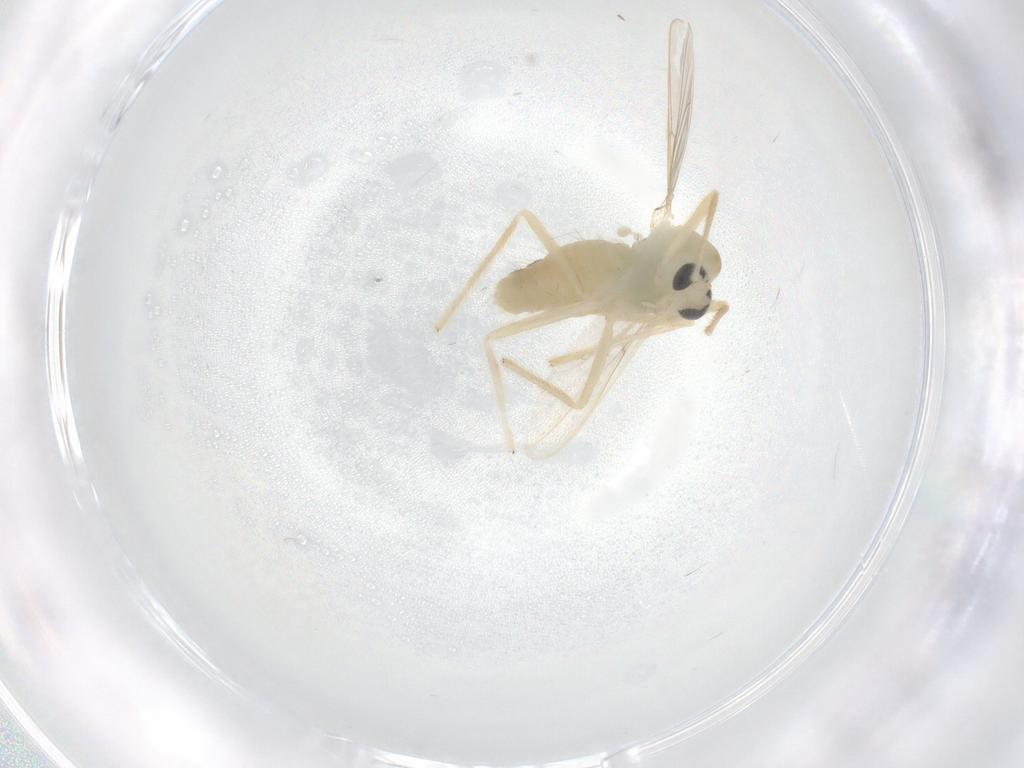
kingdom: Animalia
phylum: Arthropoda
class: Insecta
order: Diptera
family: Chironomidae
